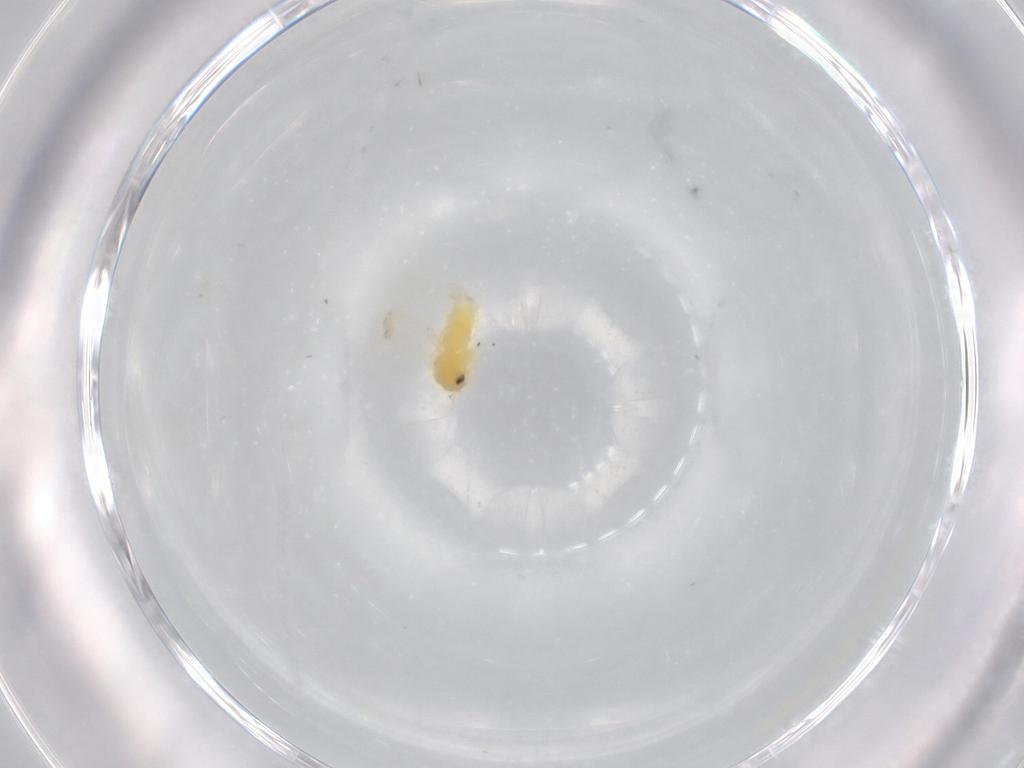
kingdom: Animalia
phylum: Arthropoda
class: Insecta
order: Hemiptera
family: Aleyrodidae
